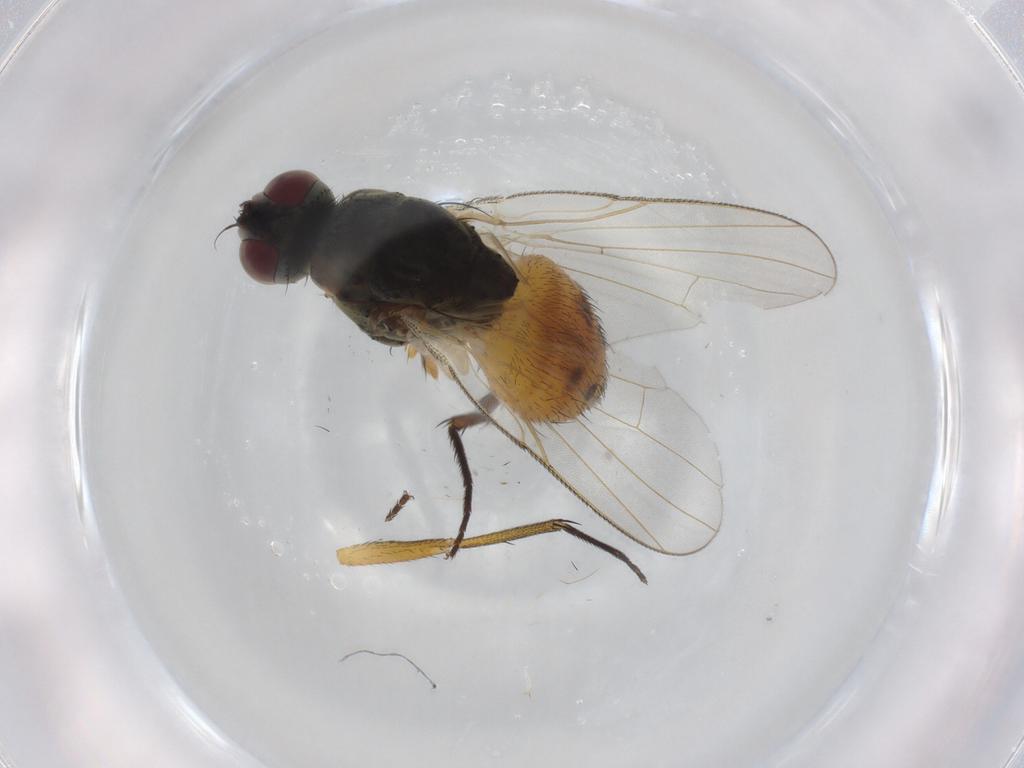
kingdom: Animalia
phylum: Arthropoda
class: Insecta
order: Diptera
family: Muscidae
